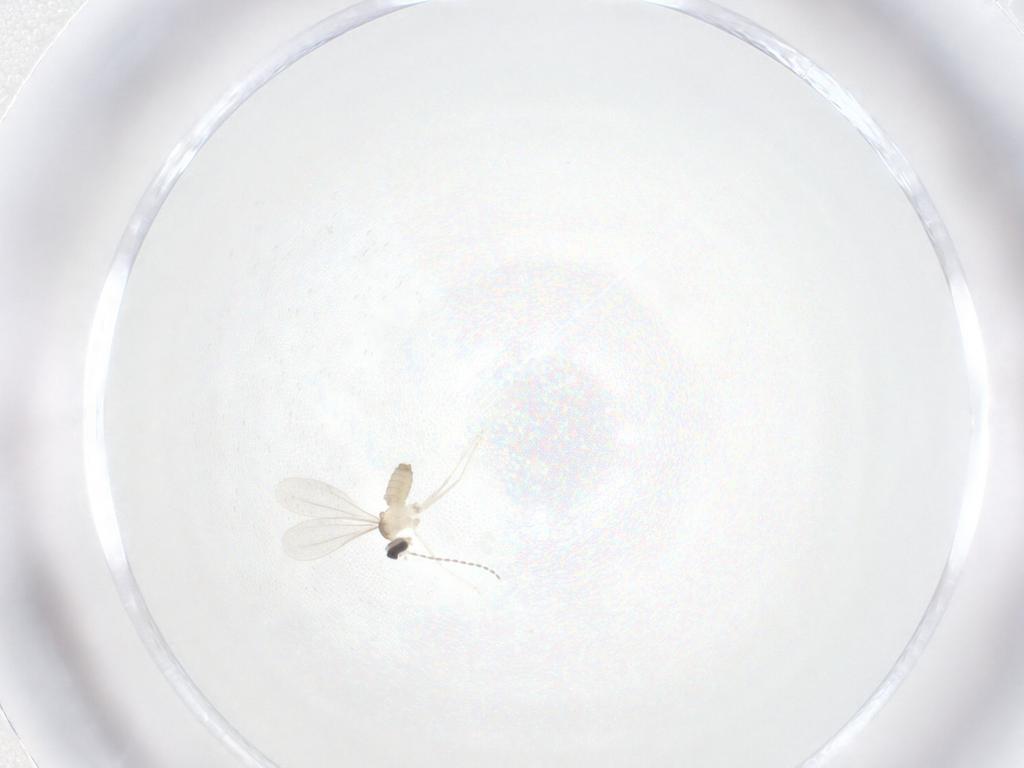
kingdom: Animalia
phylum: Arthropoda
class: Insecta
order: Diptera
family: Cecidomyiidae
